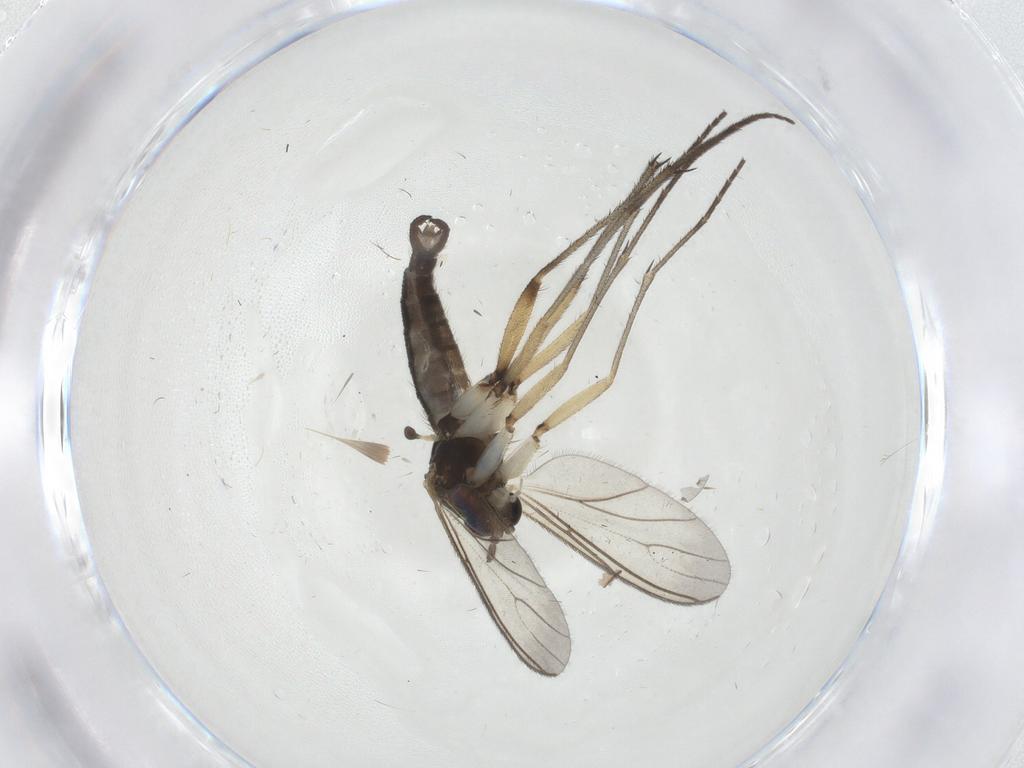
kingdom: Animalia
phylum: Arthropoda
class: Insecta
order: Diptera
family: Sciaridae
